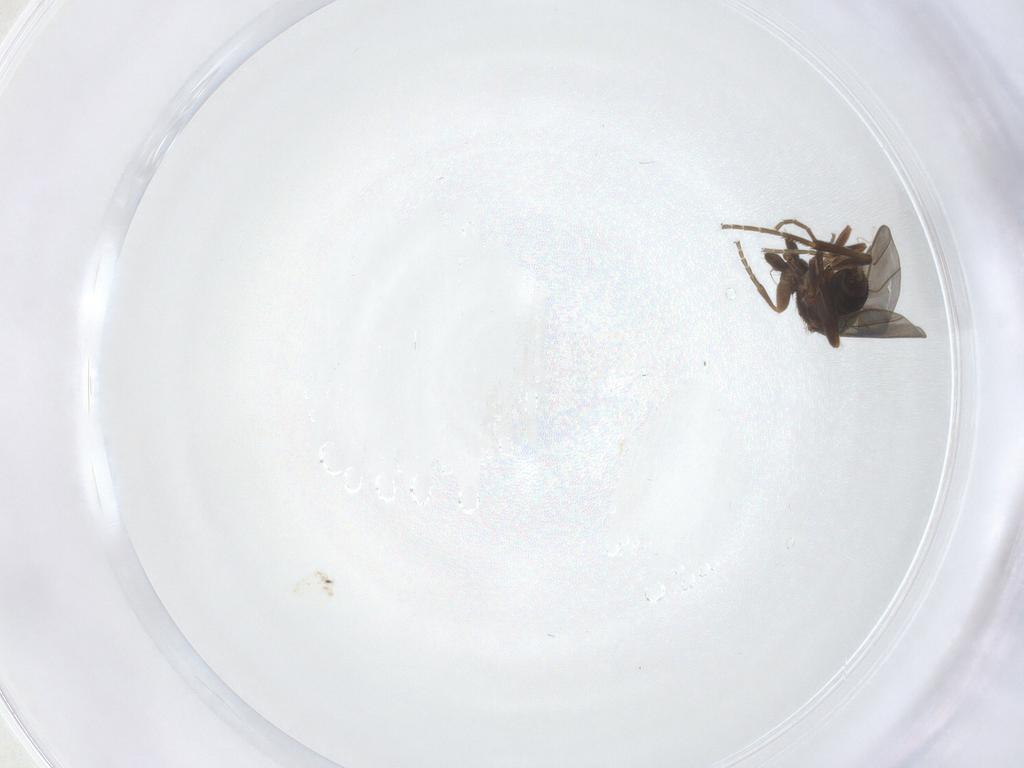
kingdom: Animalia
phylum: Arthropoda
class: Insecta
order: Diptera
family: Phoridae
